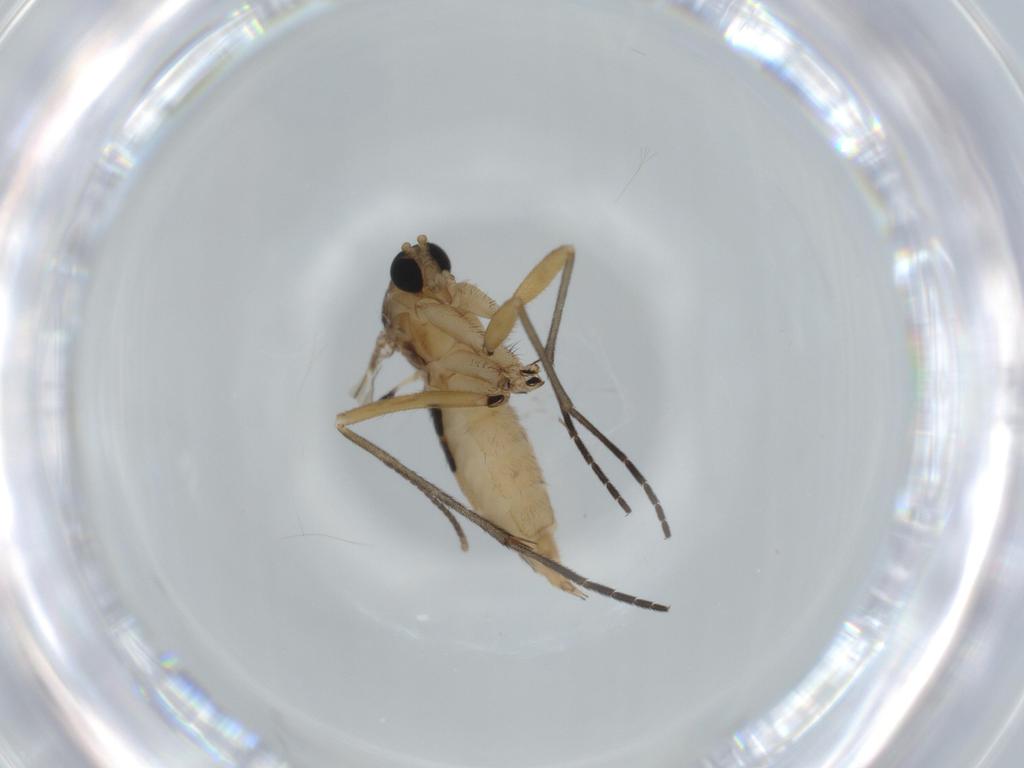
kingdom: Animalia
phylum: Arthropoda
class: Insecta
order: Diptera
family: Sciaridae
